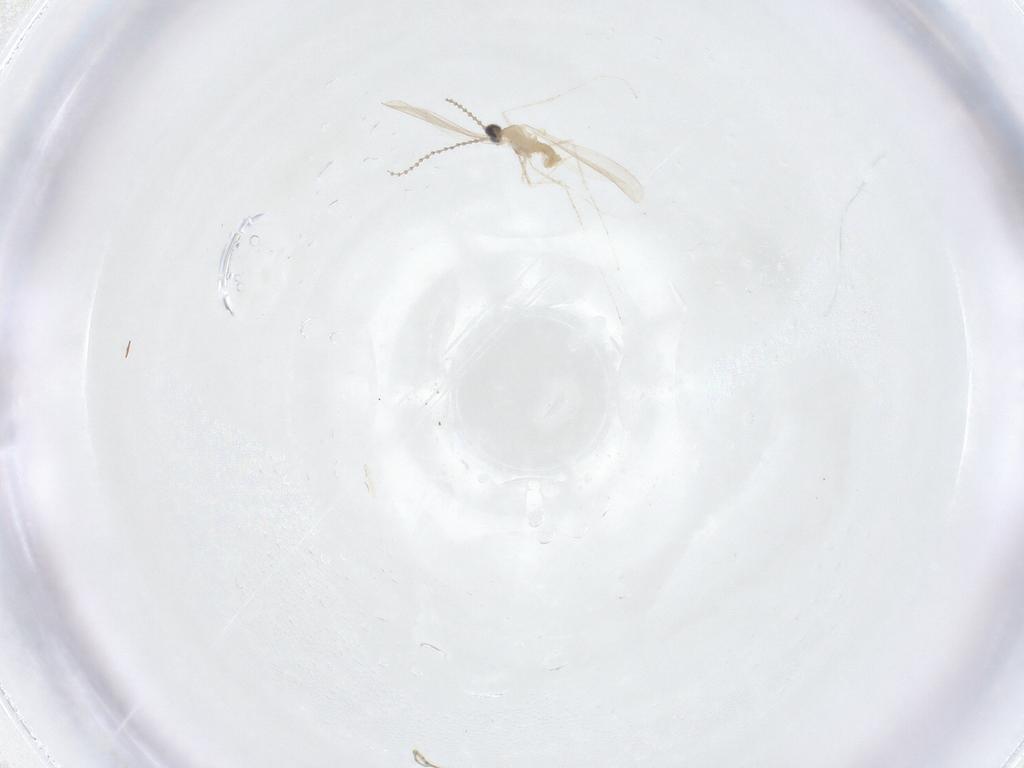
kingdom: Animalia
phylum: Arthropoda
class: Insecta
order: Diptera
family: Cecidomyiidae
